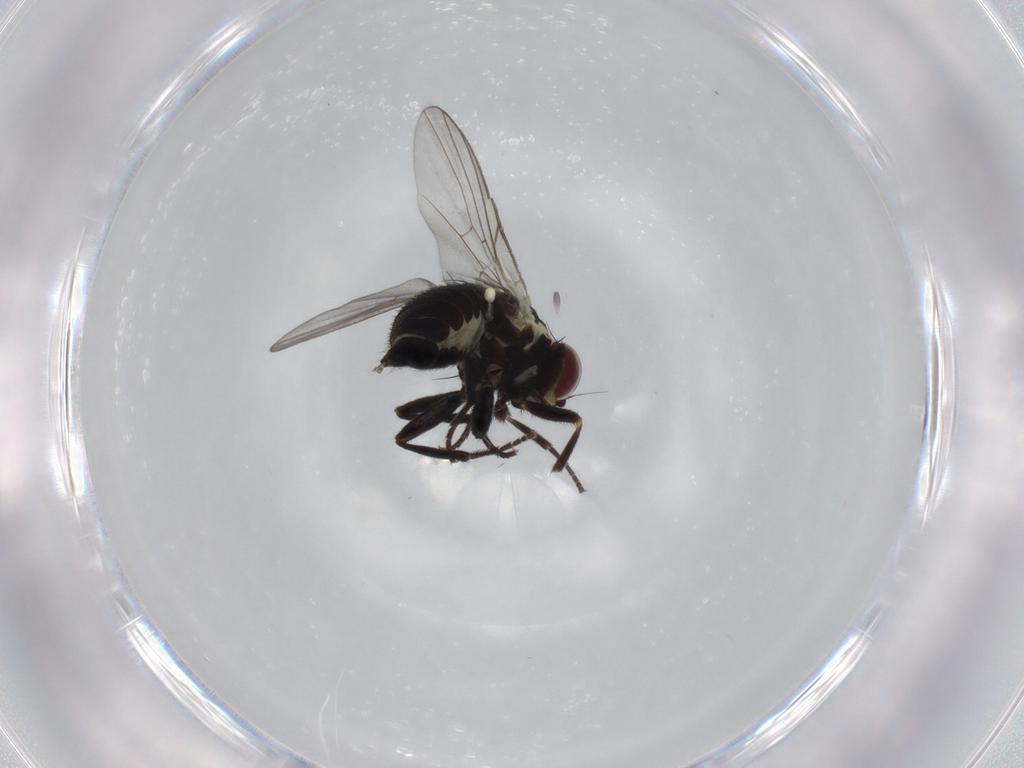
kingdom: Animalia
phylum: Arthropoda
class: Insecta
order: Diptera
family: Agromyzidae
